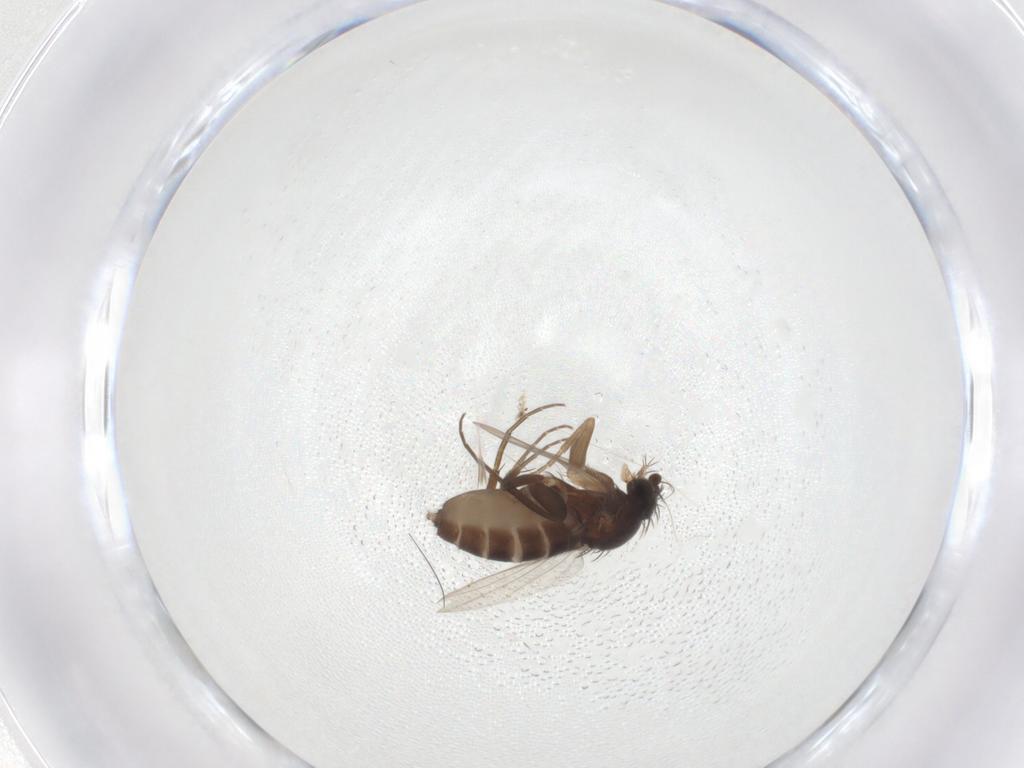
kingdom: Animalia
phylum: Arthropoda
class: Insecta
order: Diptera
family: Phoridae
